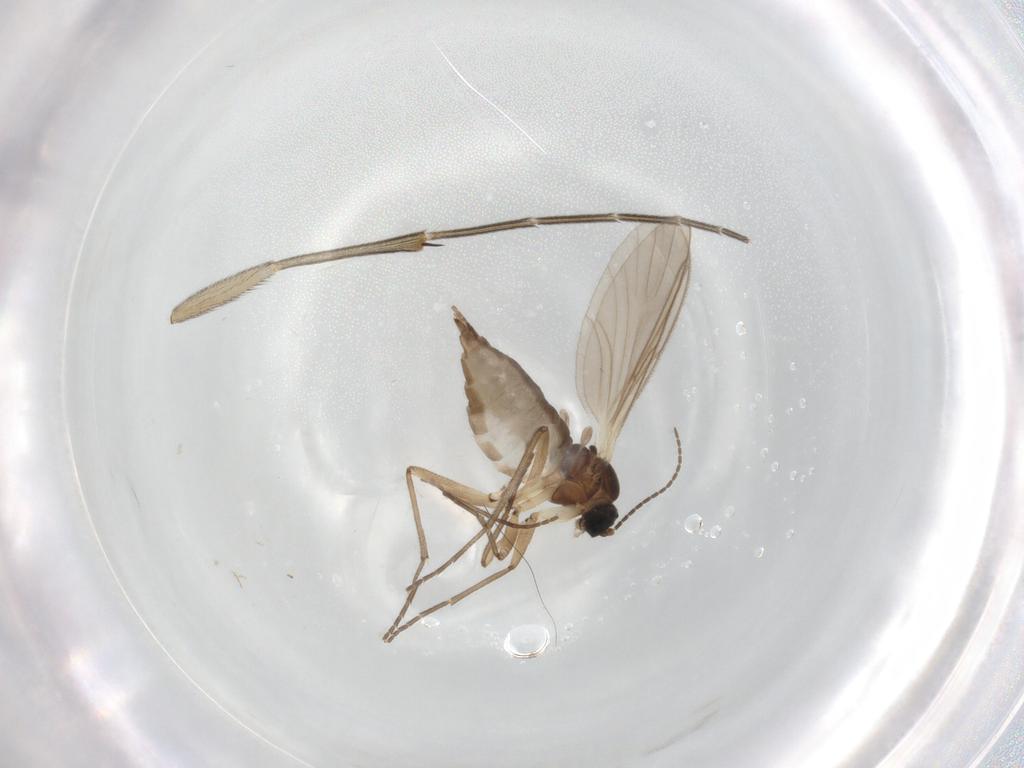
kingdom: Animalia
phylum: Arthropoda
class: Insecta
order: Diptera
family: Sciaridae
